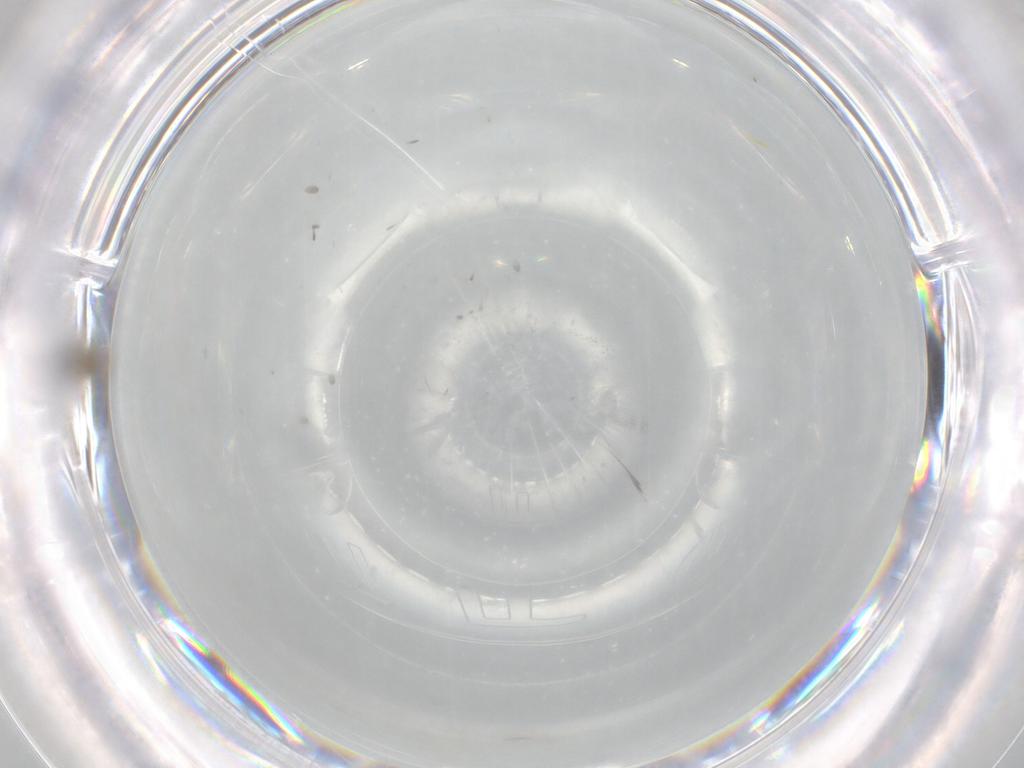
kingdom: Animalia
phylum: Arthropoda
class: Insecta
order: Diptera
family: Cecidomyiidae
